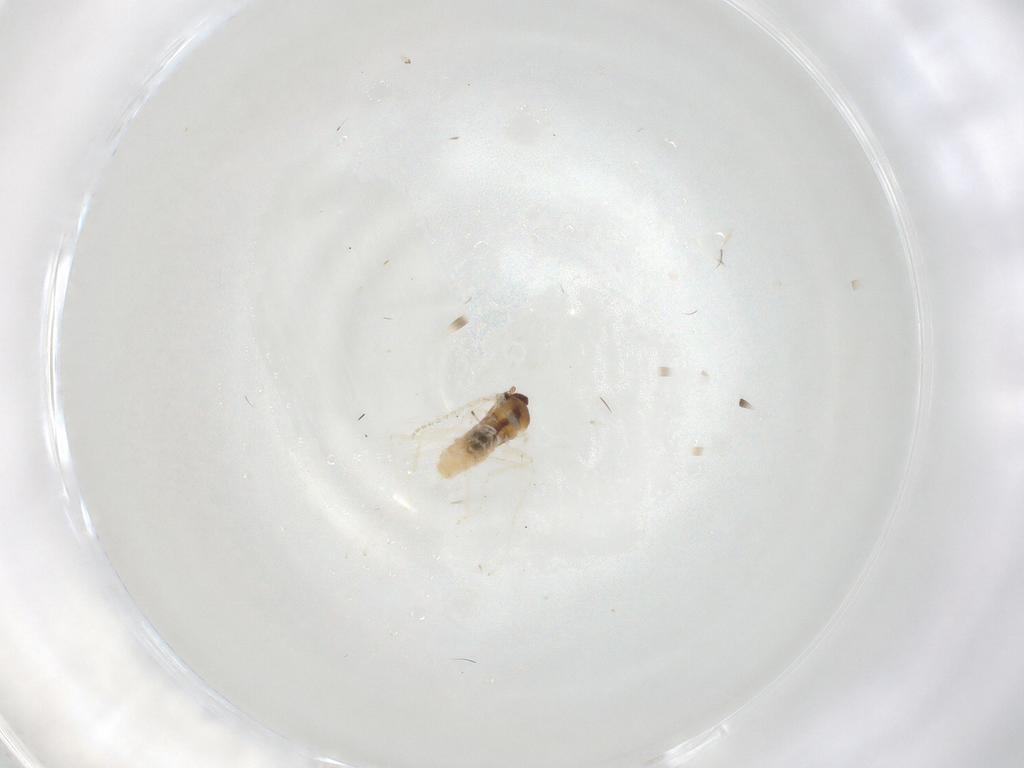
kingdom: Animalia
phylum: Arthropoda
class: Insecta
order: Diptera
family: Cecidomyiidae
